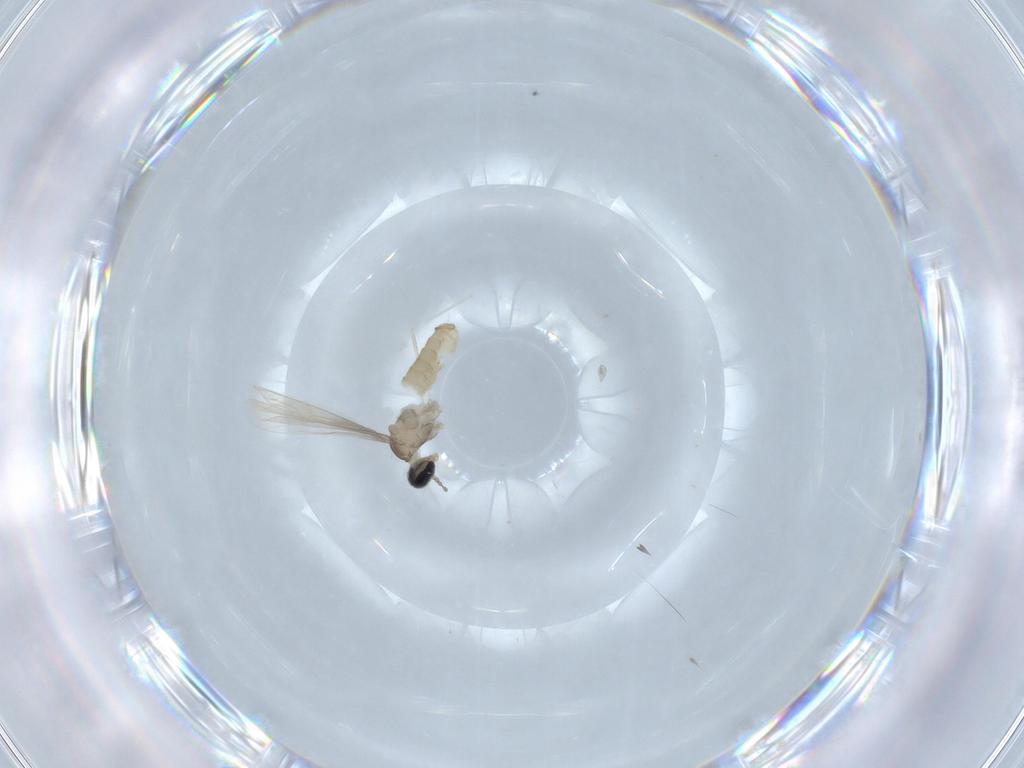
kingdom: Animalia
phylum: Arthropoda
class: Insecta
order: Diptera
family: Cecidomyiidae
